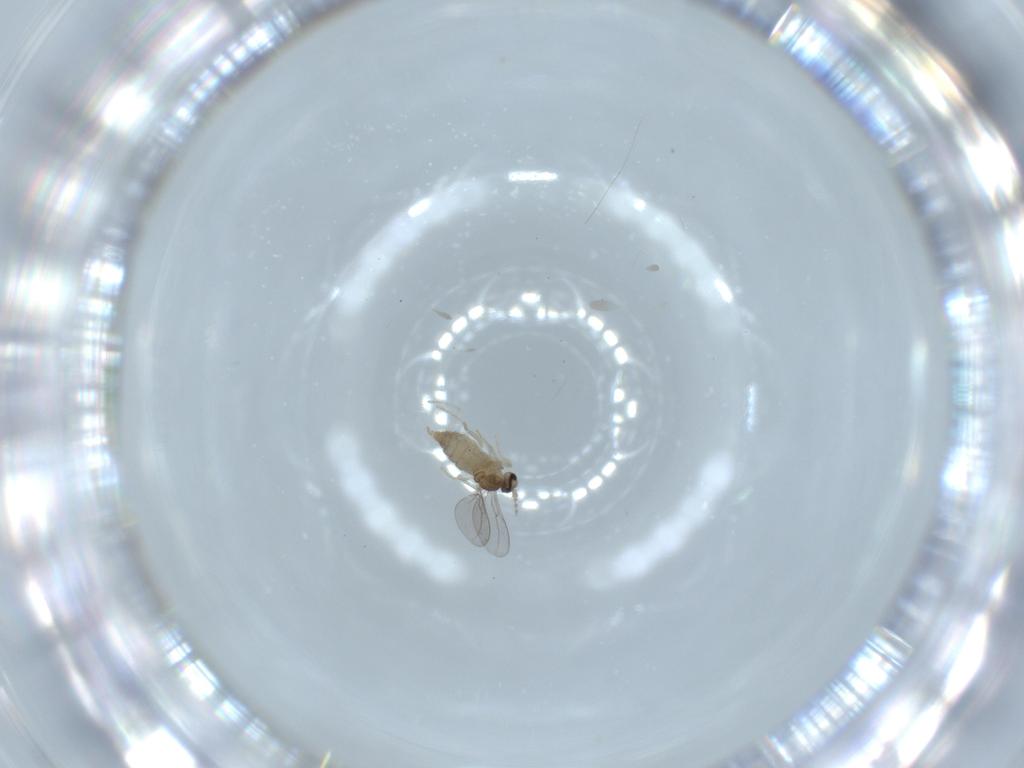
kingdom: Animalia
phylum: Arthropoda
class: Insecta
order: Diptera
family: Cecidomyiidae
